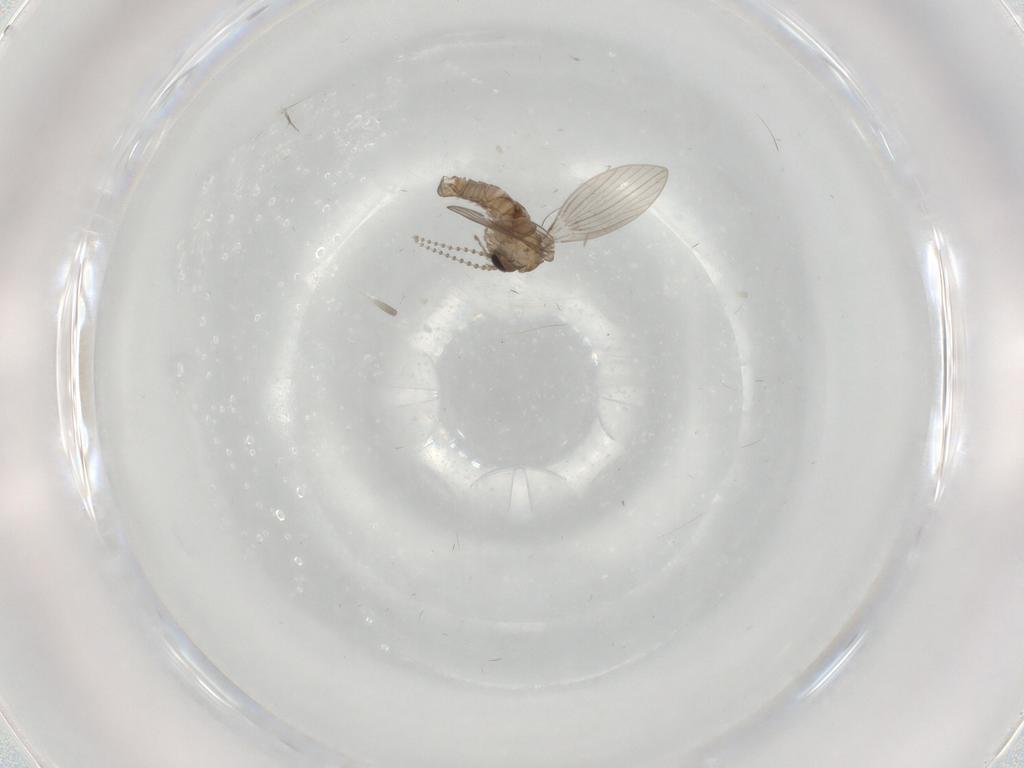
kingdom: Animalia
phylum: Arthropoda
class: Insecta
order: Diptera
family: Psychodidae
